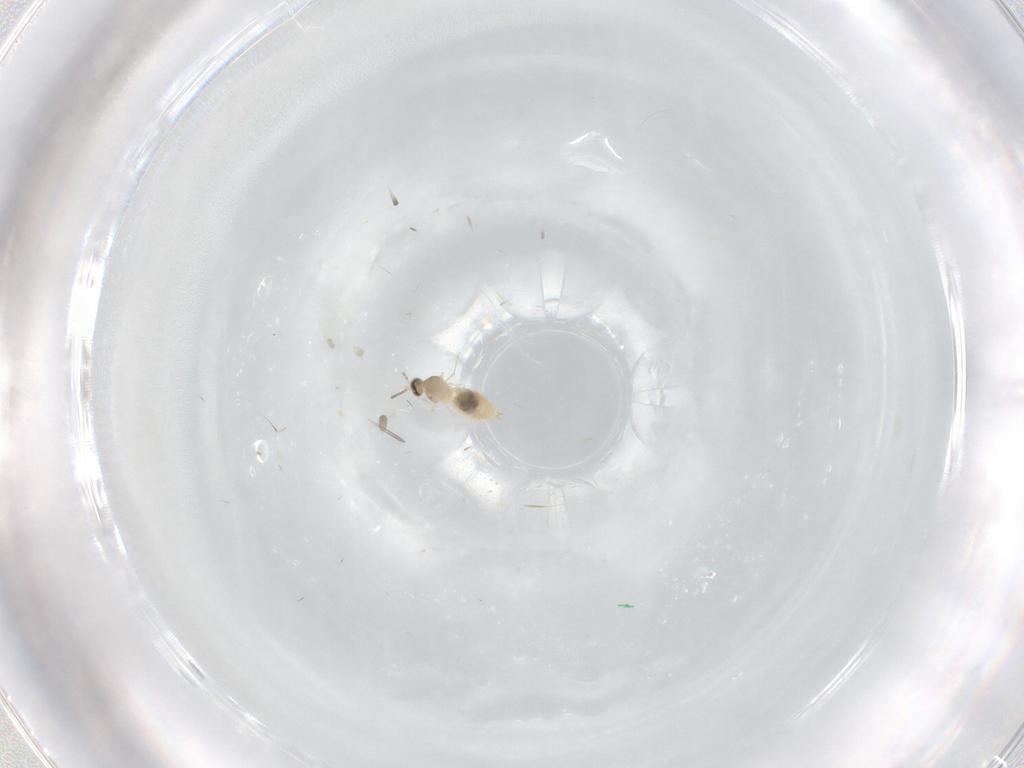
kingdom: Animalia
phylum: Arthropoda
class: Insecta
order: Diptera
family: Cecidomyiidae
